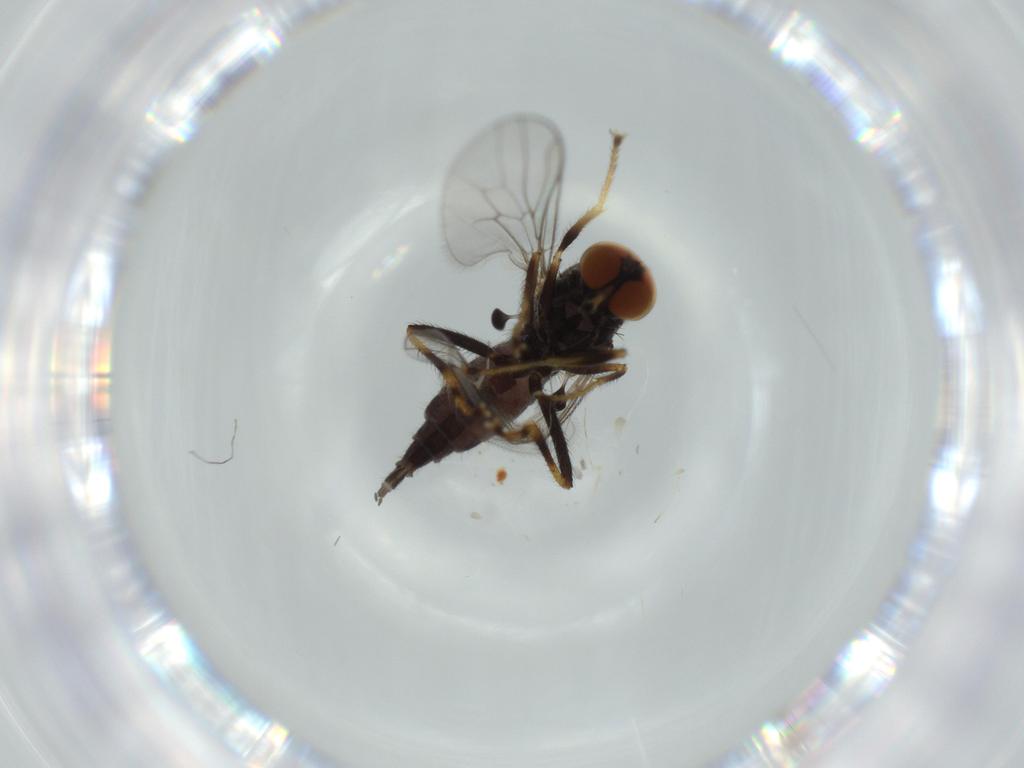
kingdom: Animalia
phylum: Arthropoda
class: Insecta
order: Diptera
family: Hybotidae
